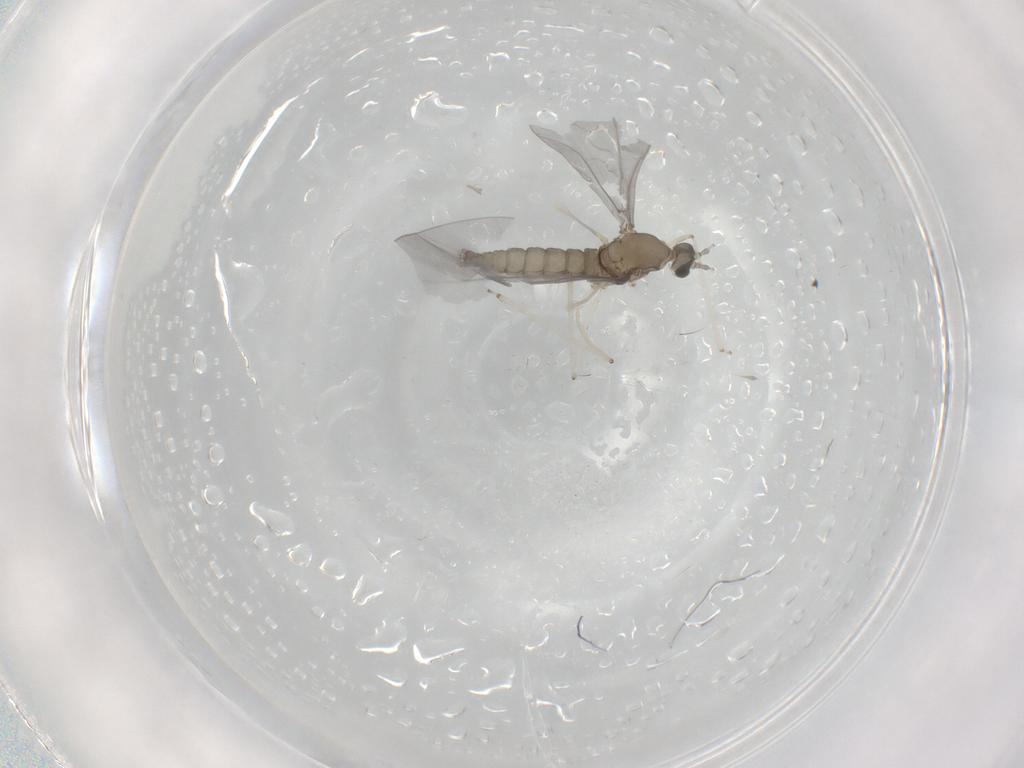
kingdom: Animalia
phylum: Arthropoda
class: Insecta
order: Diptera
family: Cecidomyiidae
